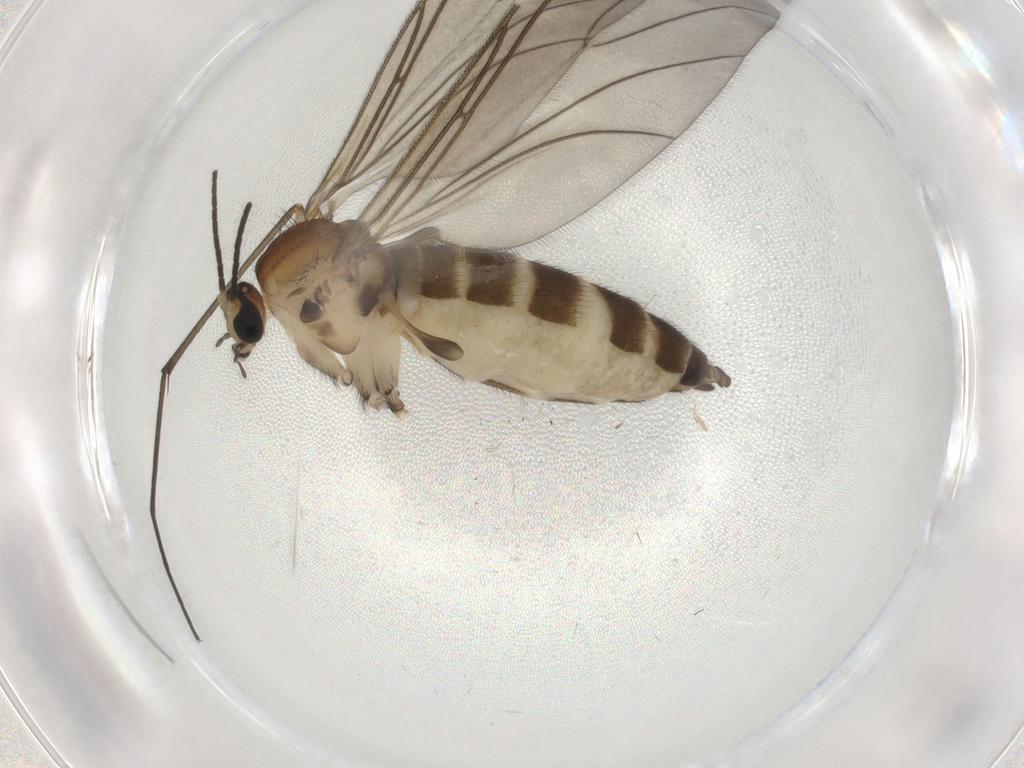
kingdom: Animalia
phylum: Arthropoda
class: Insecta
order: Diptera
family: Sciaridae
